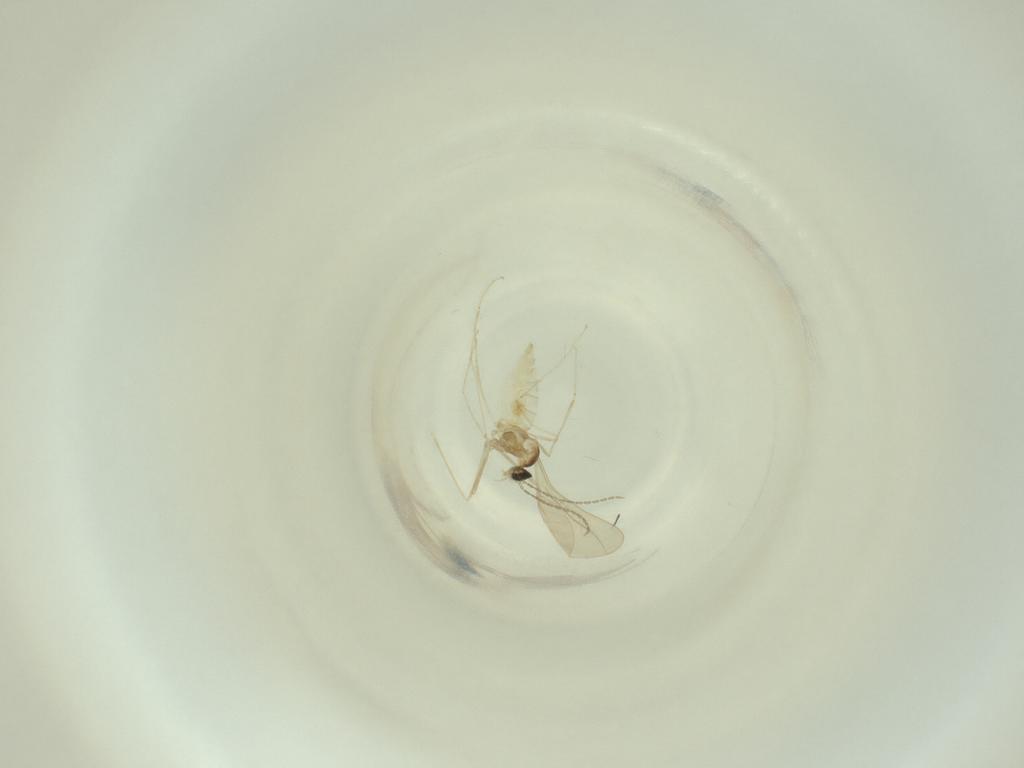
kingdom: Animalia
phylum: Arthropoda
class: Insecta
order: Diptera
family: Cecidomyiidae
